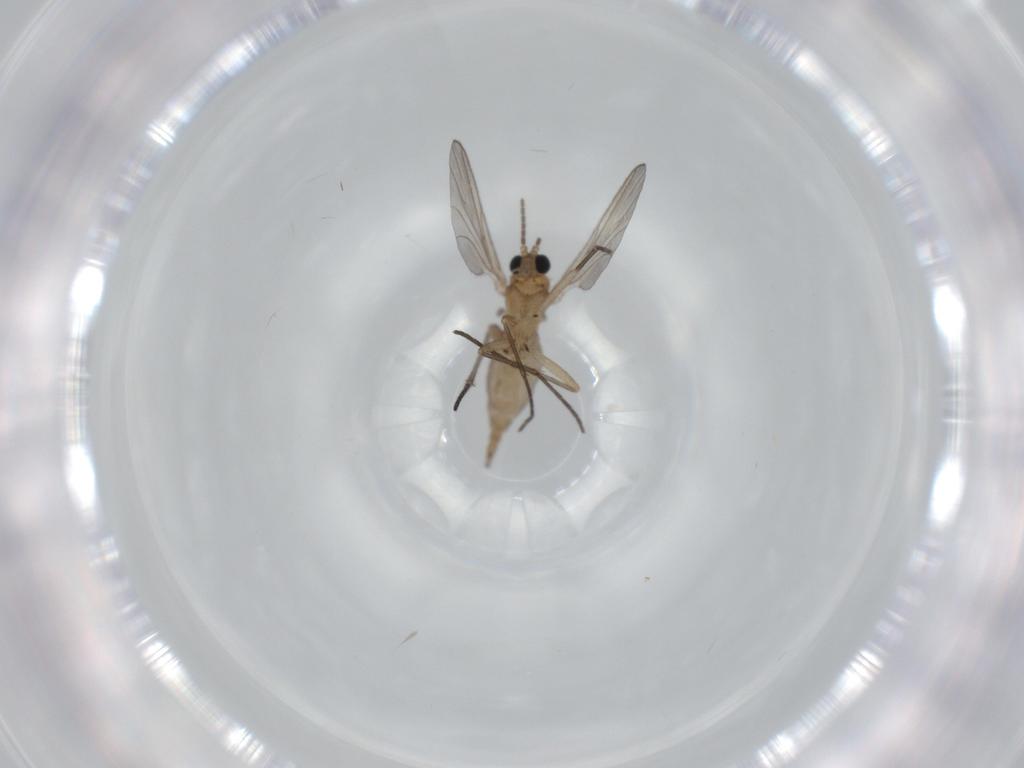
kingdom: Animalia
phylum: Arthropoda
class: Insecta
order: Diptera
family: Sciaridae
